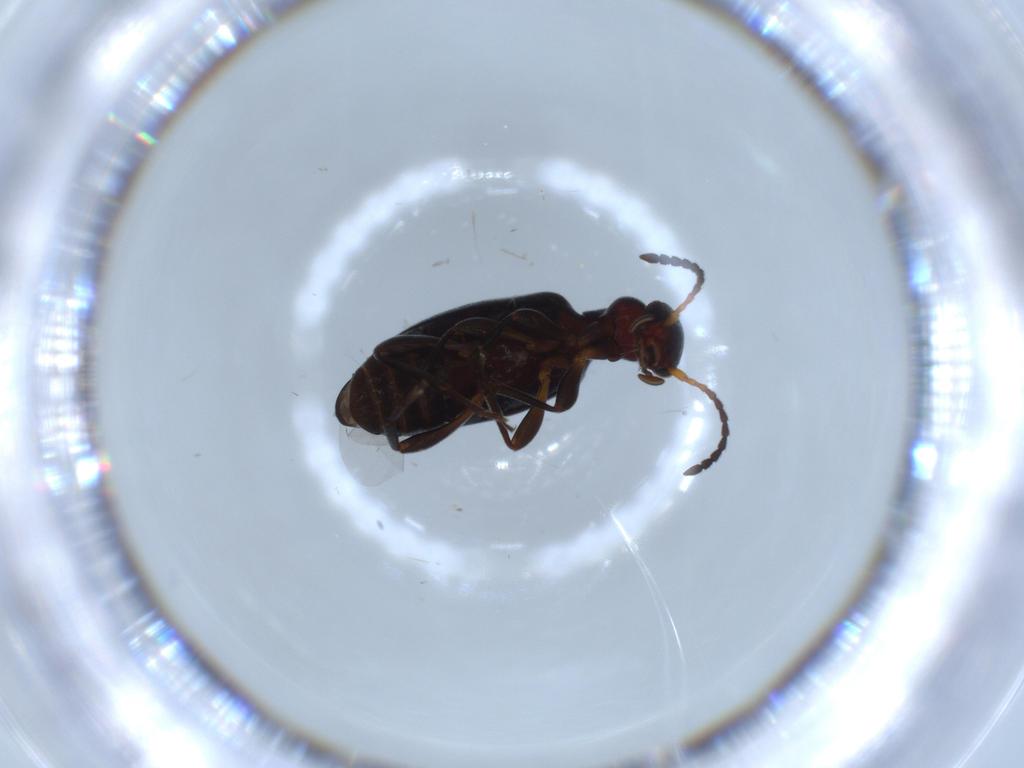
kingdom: Animalia
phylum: Arthropoda
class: Insecta
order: Coleoptera
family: Anthicidae
